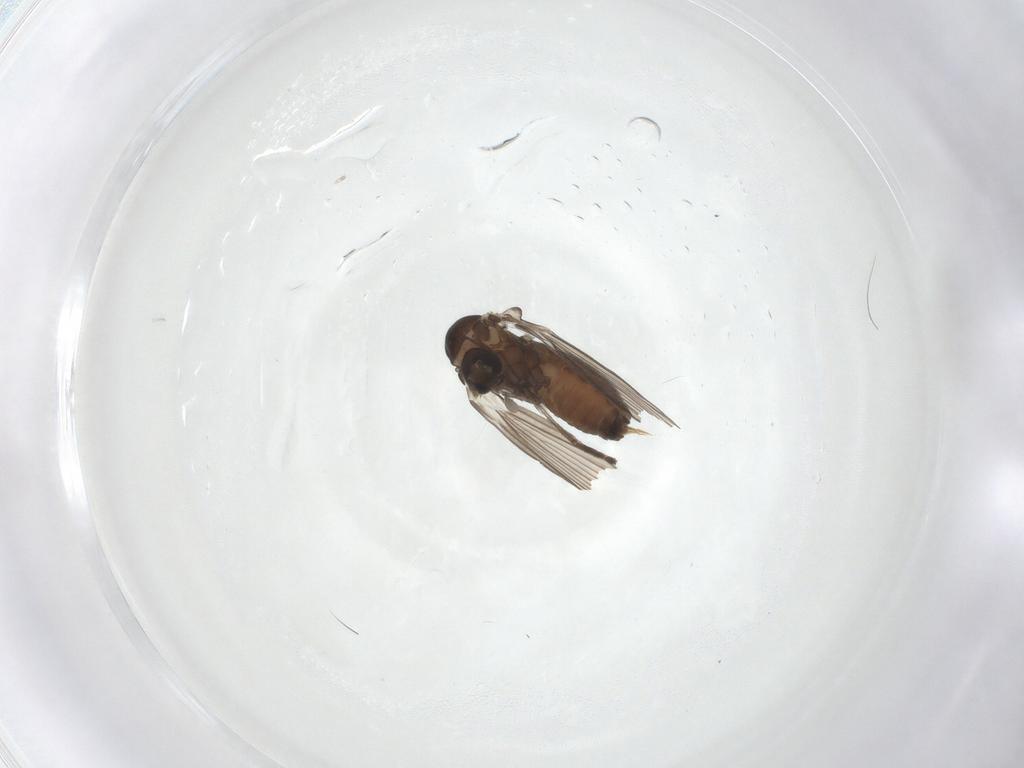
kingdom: Animalia
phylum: Arthropoda
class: Insecta
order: Diptera
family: Psychodidae
